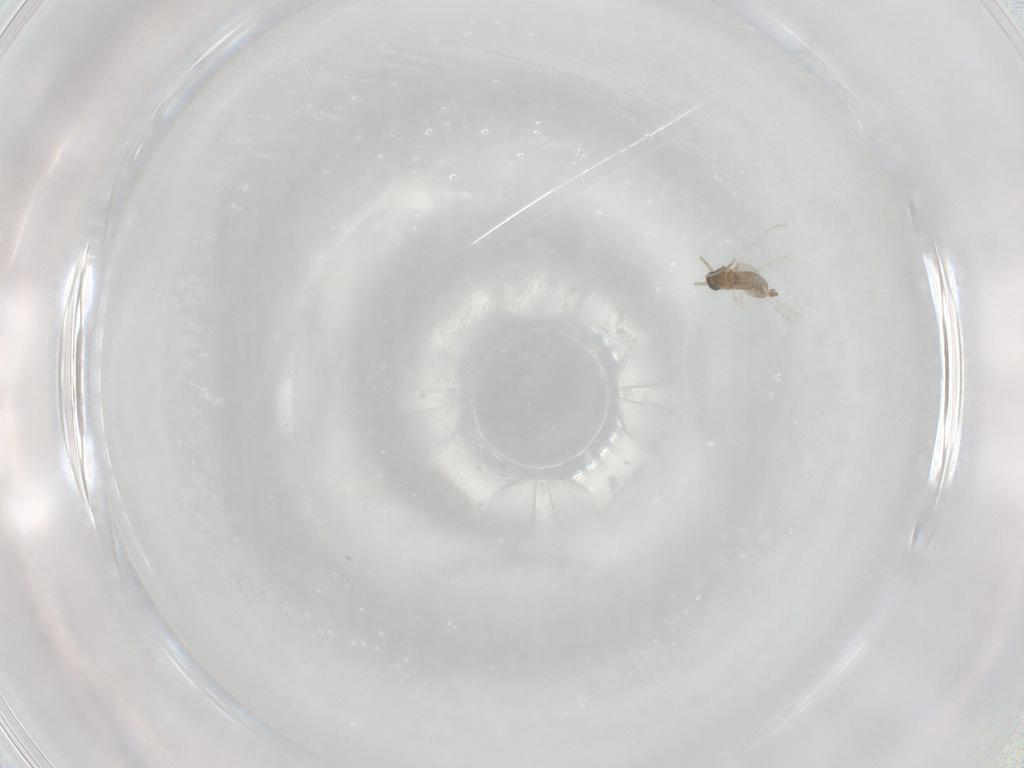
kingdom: Animalia
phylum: Arthropoda
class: Insecta
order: Diptera
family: Cecidomyiidae
